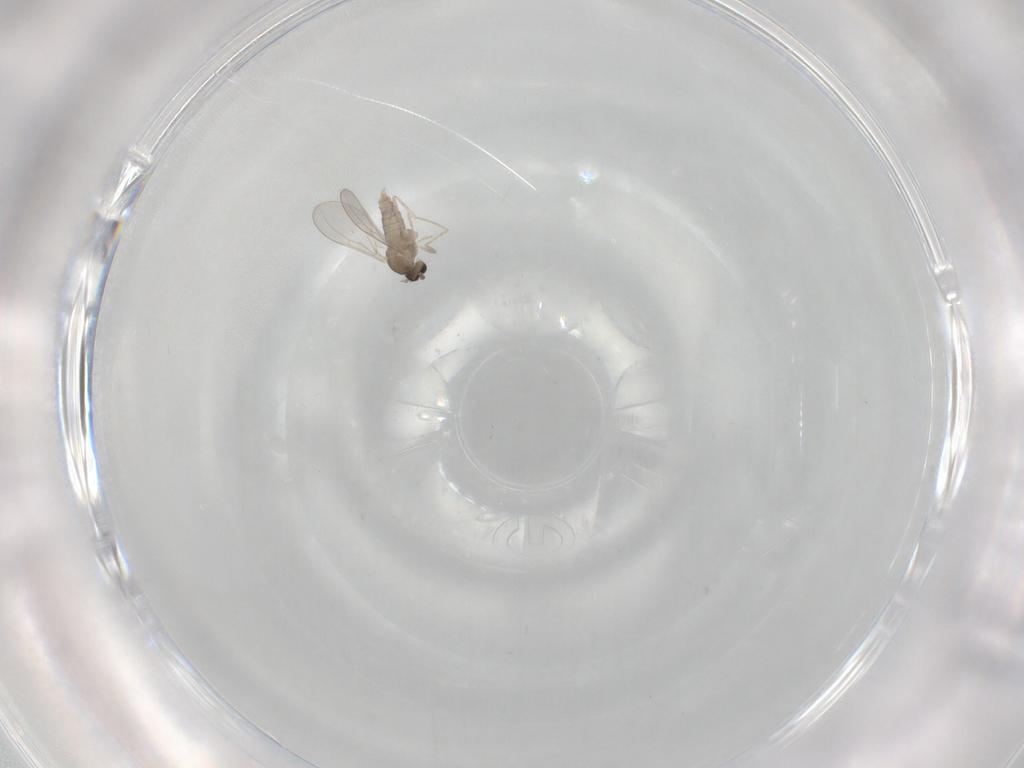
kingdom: Animalia
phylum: Arthropoda
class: Insecta
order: Diptera
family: Cecidomyiidae
